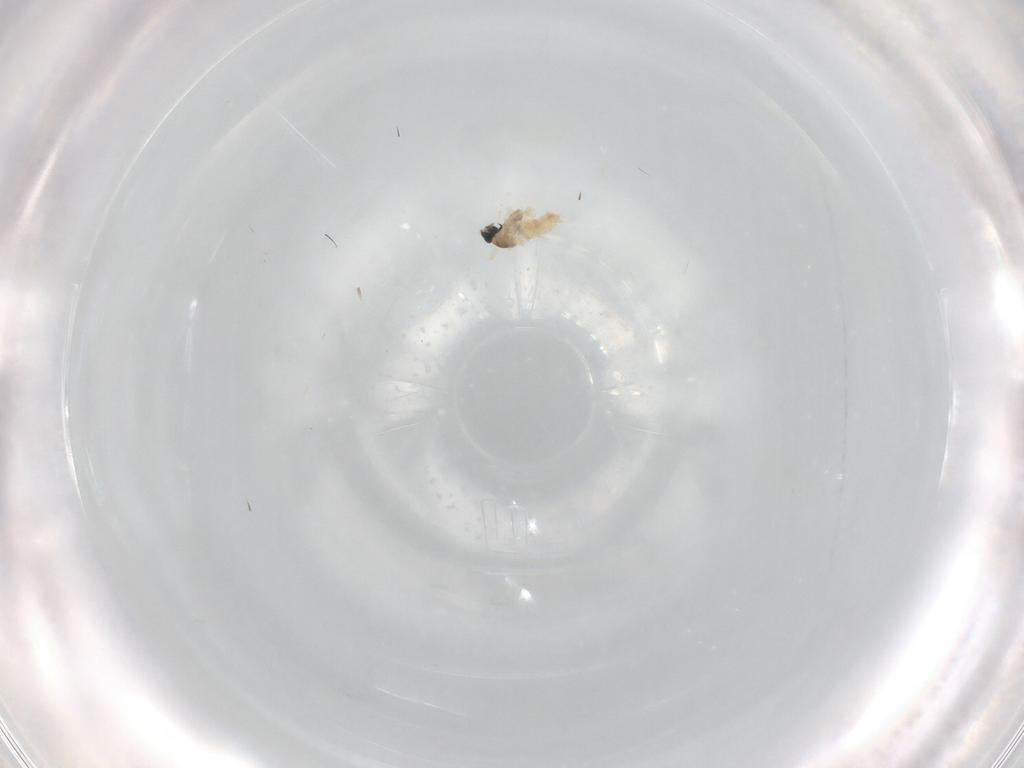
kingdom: Animalia
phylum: Arthropoda
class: Insecta
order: Diptera
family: Cecidomyiidae
